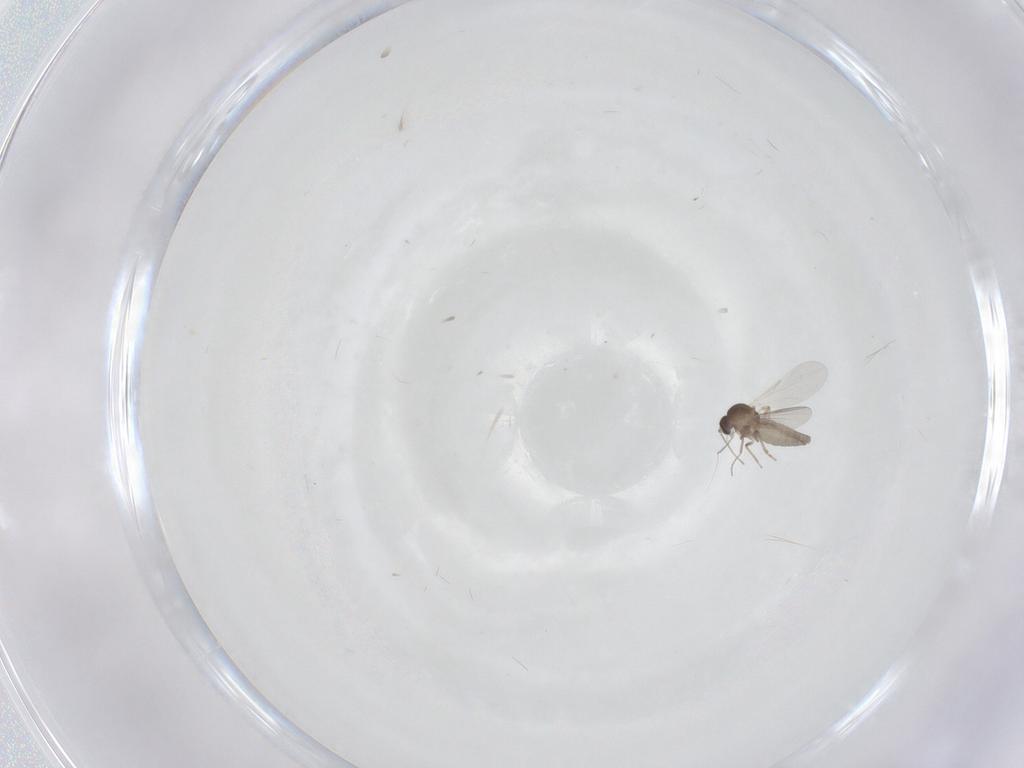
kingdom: Animalia
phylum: Arthropoda
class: Insecta
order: Diptera
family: Ceratopogonidae
